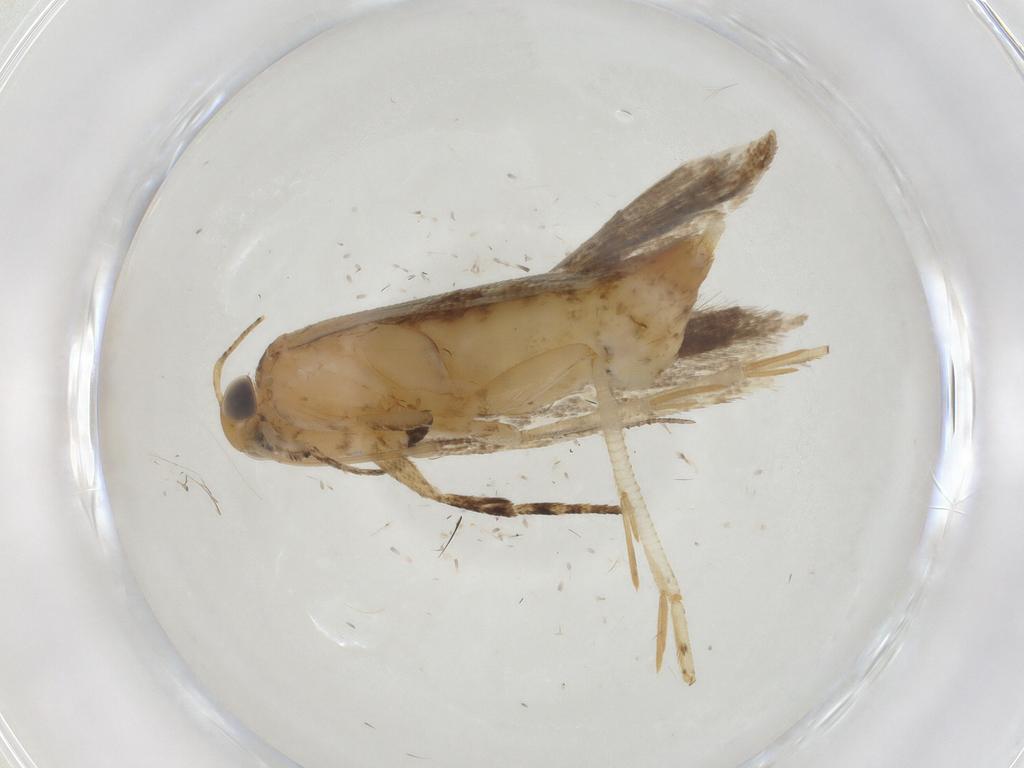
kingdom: Animalia
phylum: Arthropoda
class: Insecta
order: Lepidoptera
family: Gelechiidae
